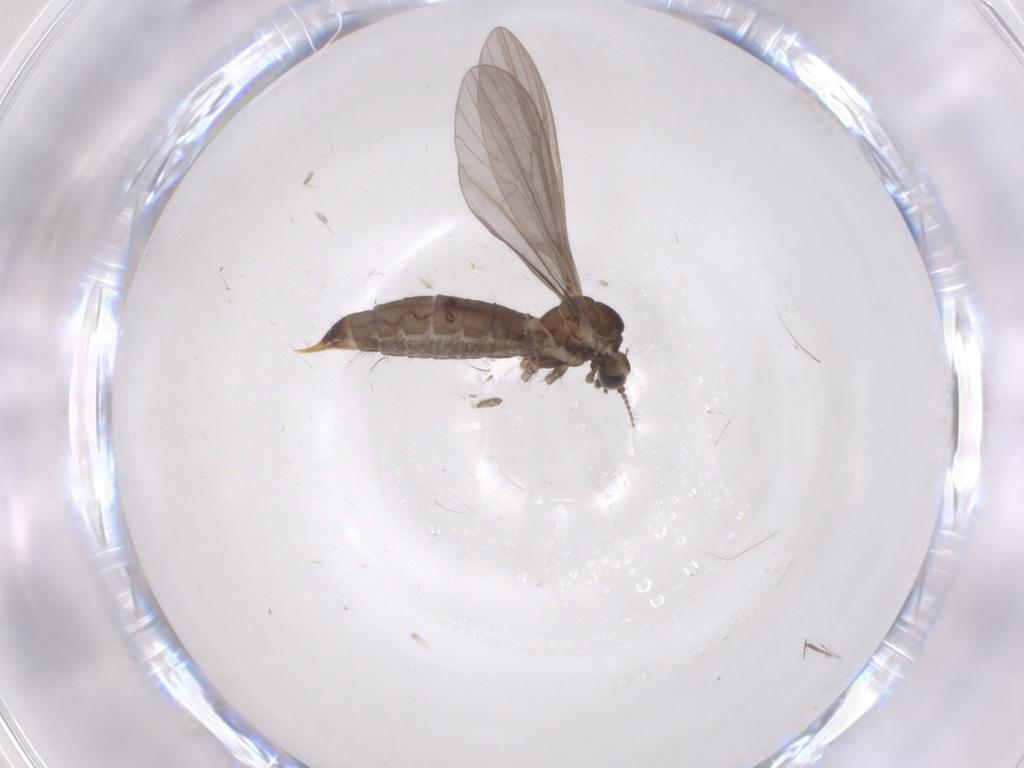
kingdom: Animalia
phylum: Arthropoda
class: Insecta
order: Diptera
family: Limoniidae
